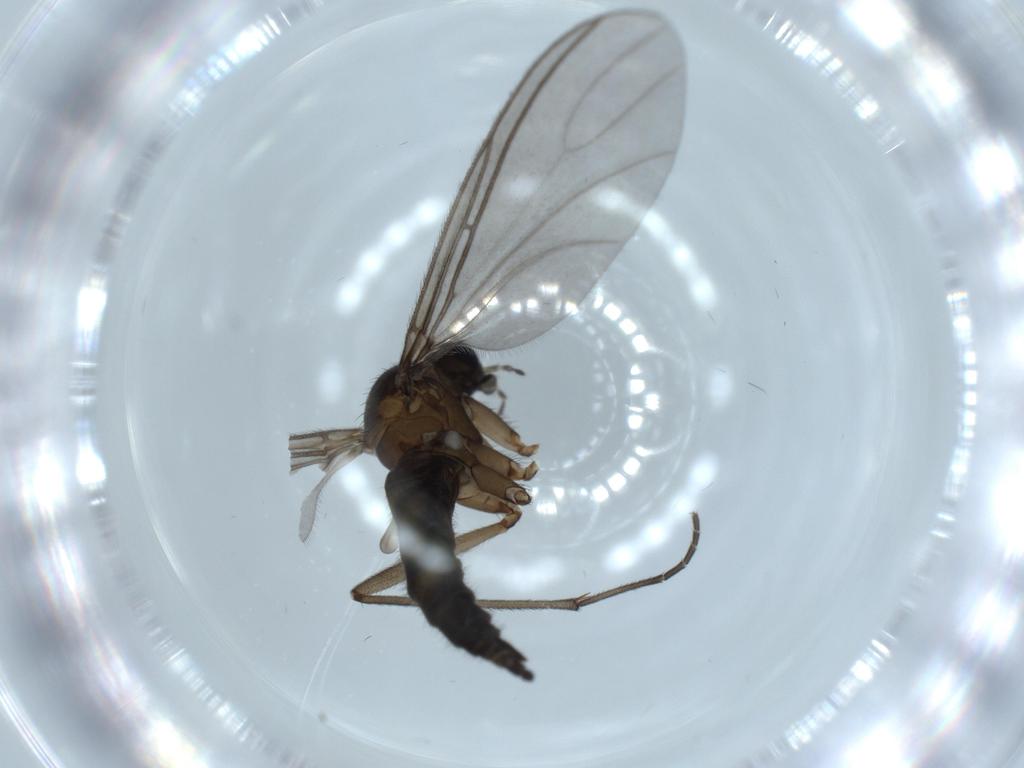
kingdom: Animalia
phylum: Arthropoda
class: Insecta
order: Diptera
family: Sciaridae
